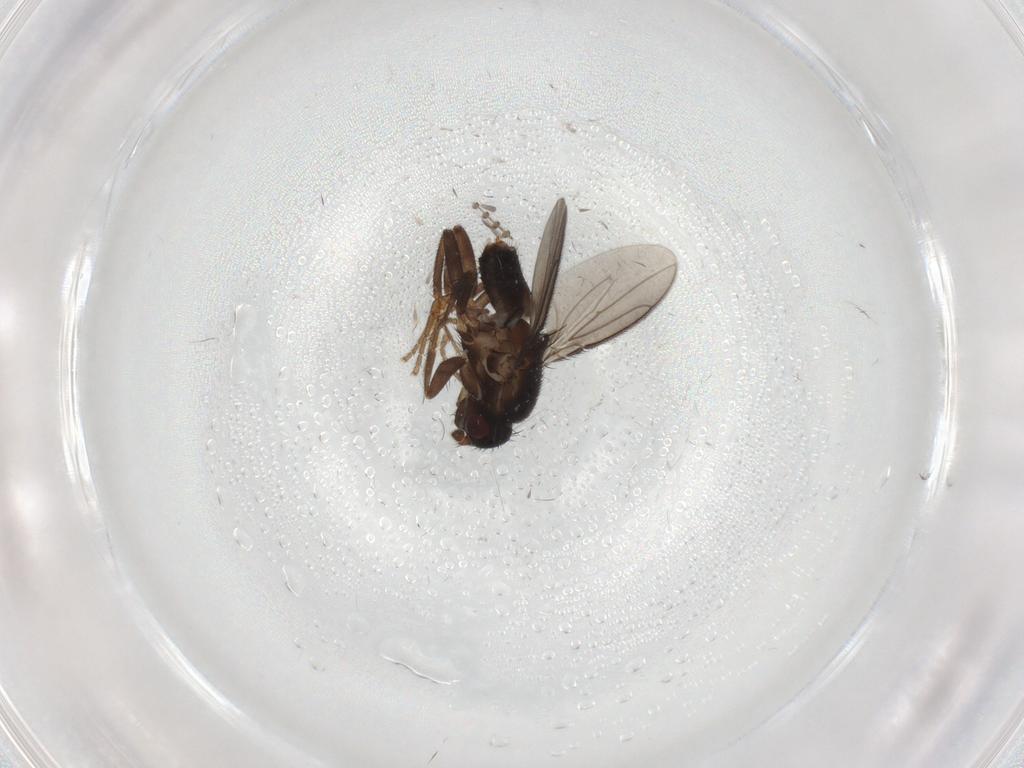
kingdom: Animalia
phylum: Arthropoda
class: Insecta
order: Diptera
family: Sphaeroceridae
